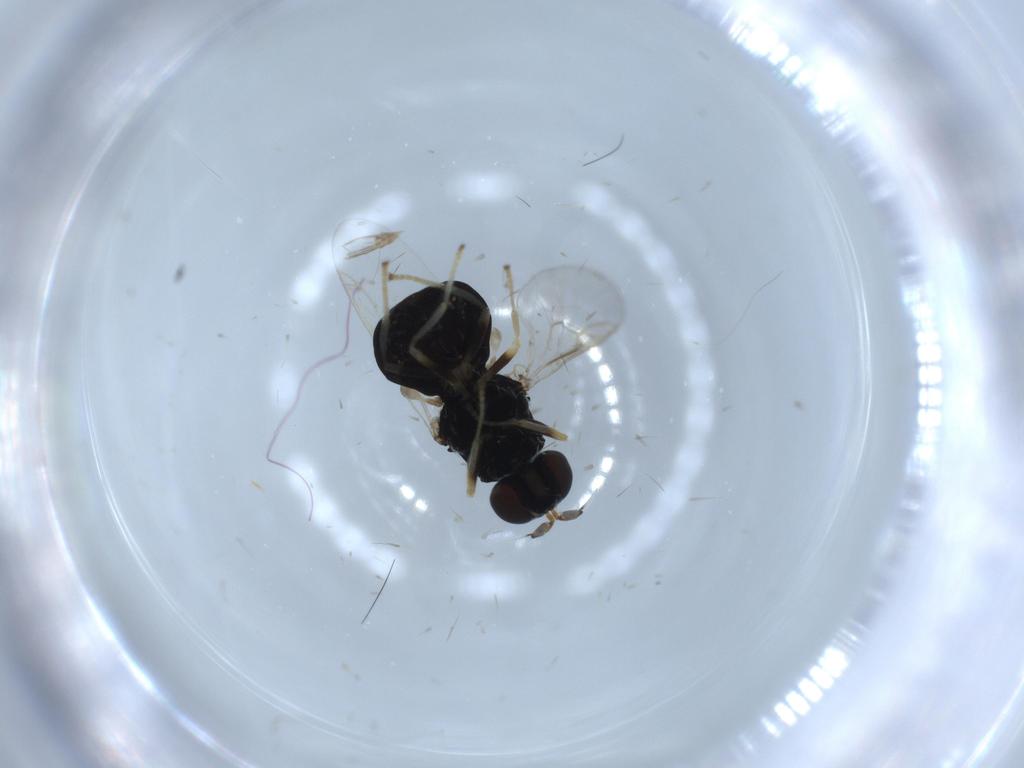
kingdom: Animalia
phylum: Arthropoda
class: Insecta
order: Diptera
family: Stratiomyidae
